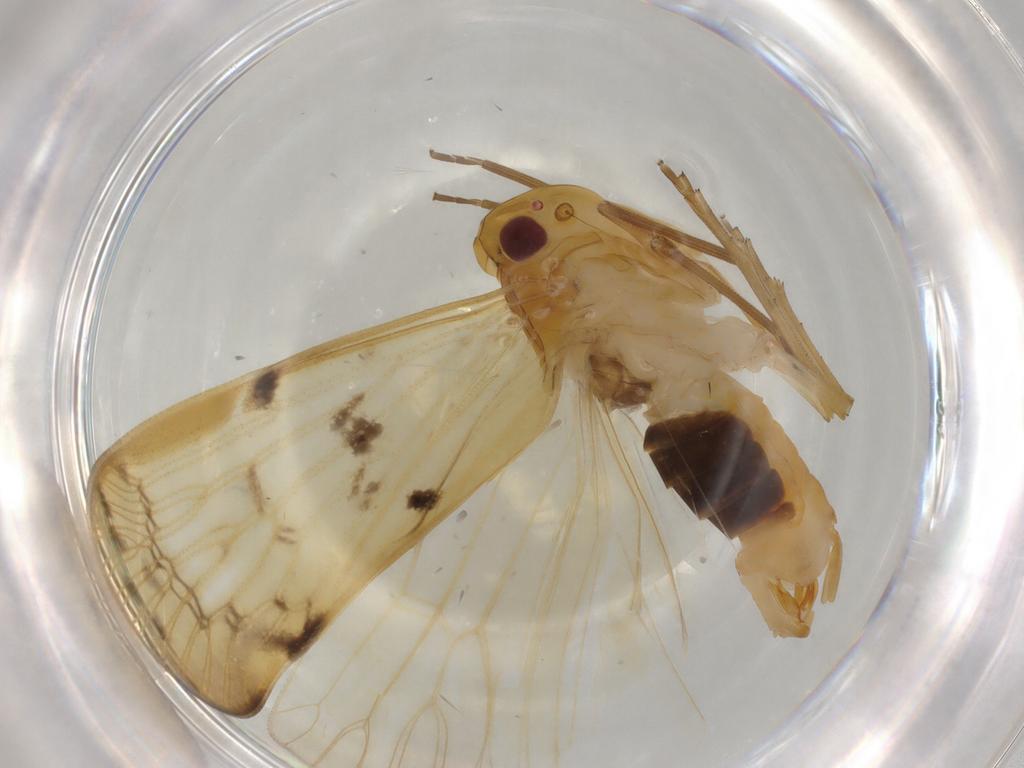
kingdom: Animalia
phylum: Arthropoda
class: Insecta
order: Hemiptera
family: Cixiidae
